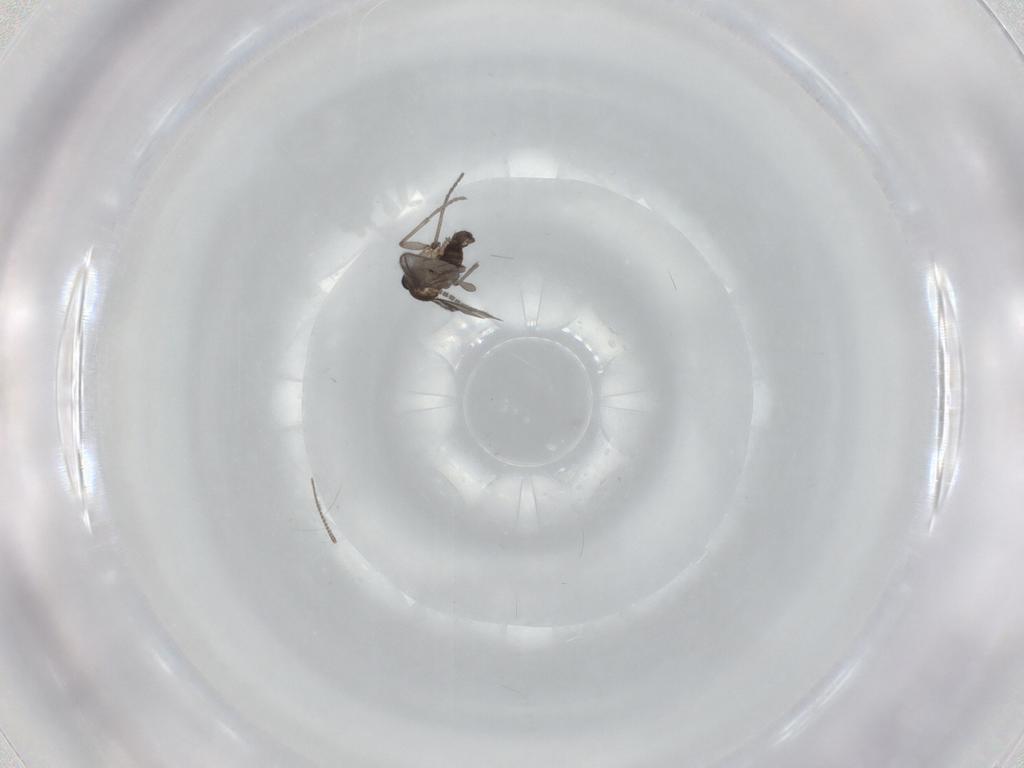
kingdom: Animalia
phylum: Arthropoda
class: Insecta
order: Diptera
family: Sciaridae
